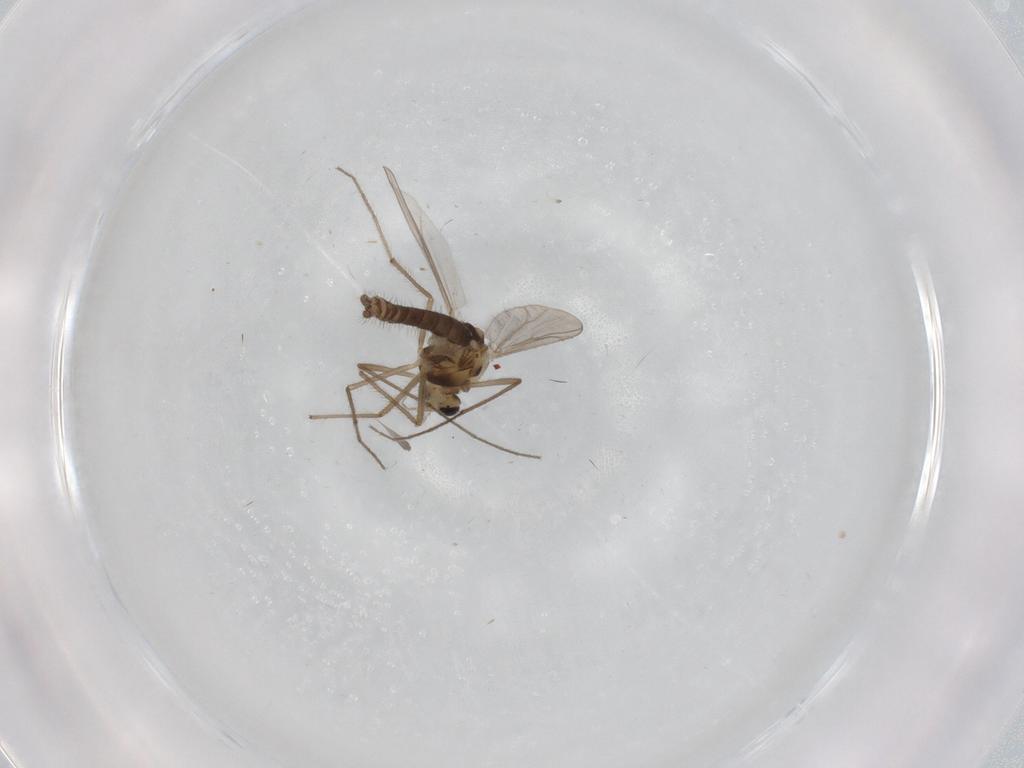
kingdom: Animalia
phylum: Arthropoda
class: Insecta
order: Diptera
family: Chironomidae
